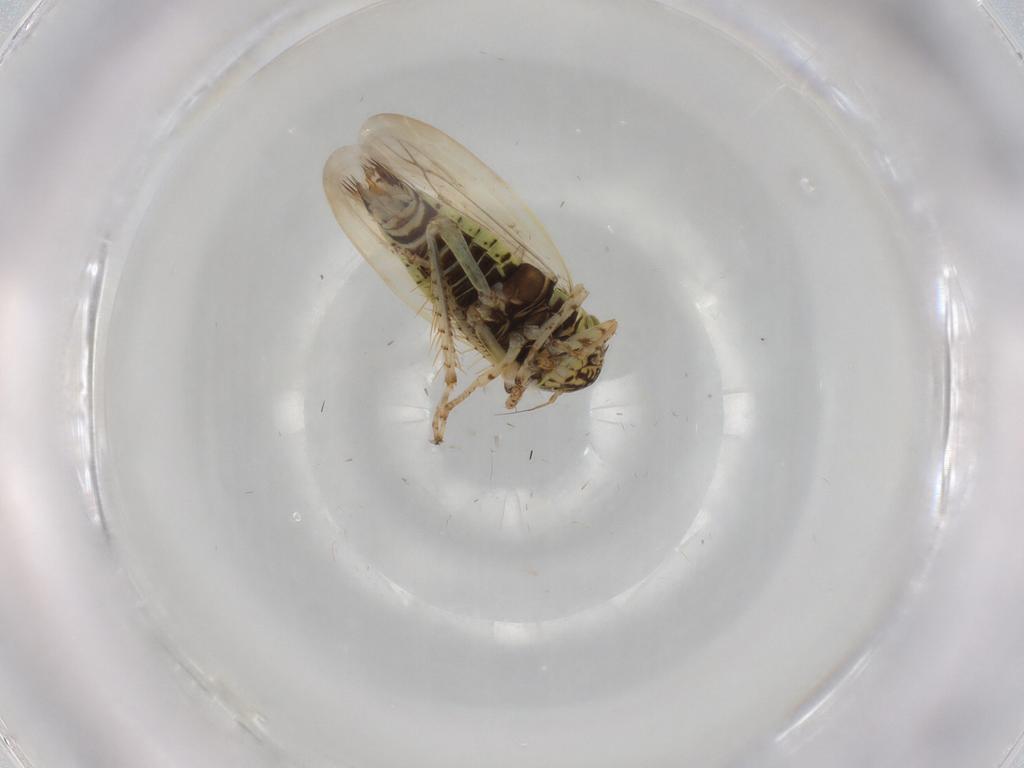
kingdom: Animalia
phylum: Arthropoda
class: Insecta
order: Hemiptera
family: Cicadellidae
